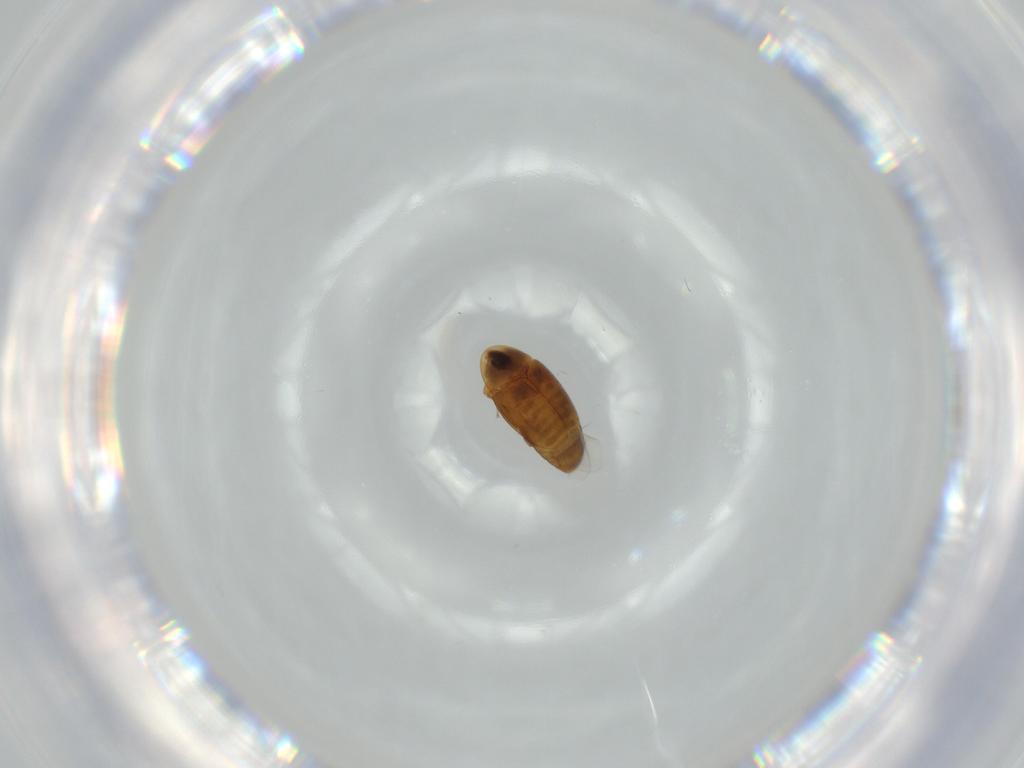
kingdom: Animalia
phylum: Arthropoda
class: Insecta
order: Coleoptera
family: Corylophidae
